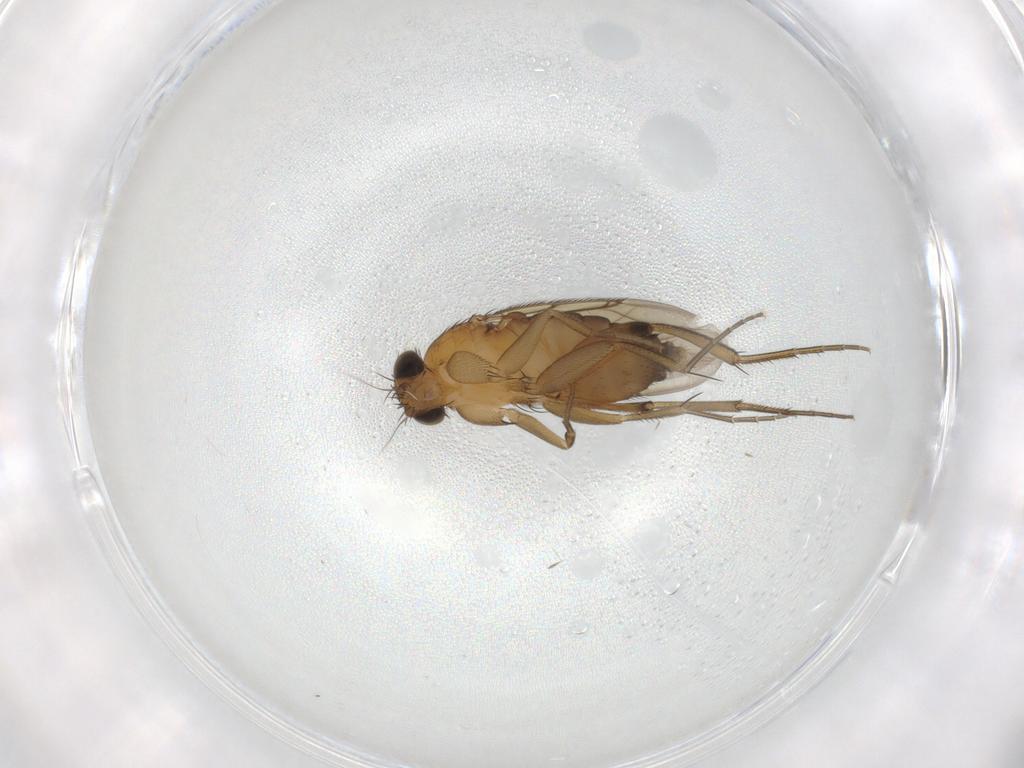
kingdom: Animalia
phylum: Arthropoda
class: Insecta
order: Diptera
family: Phoridae
